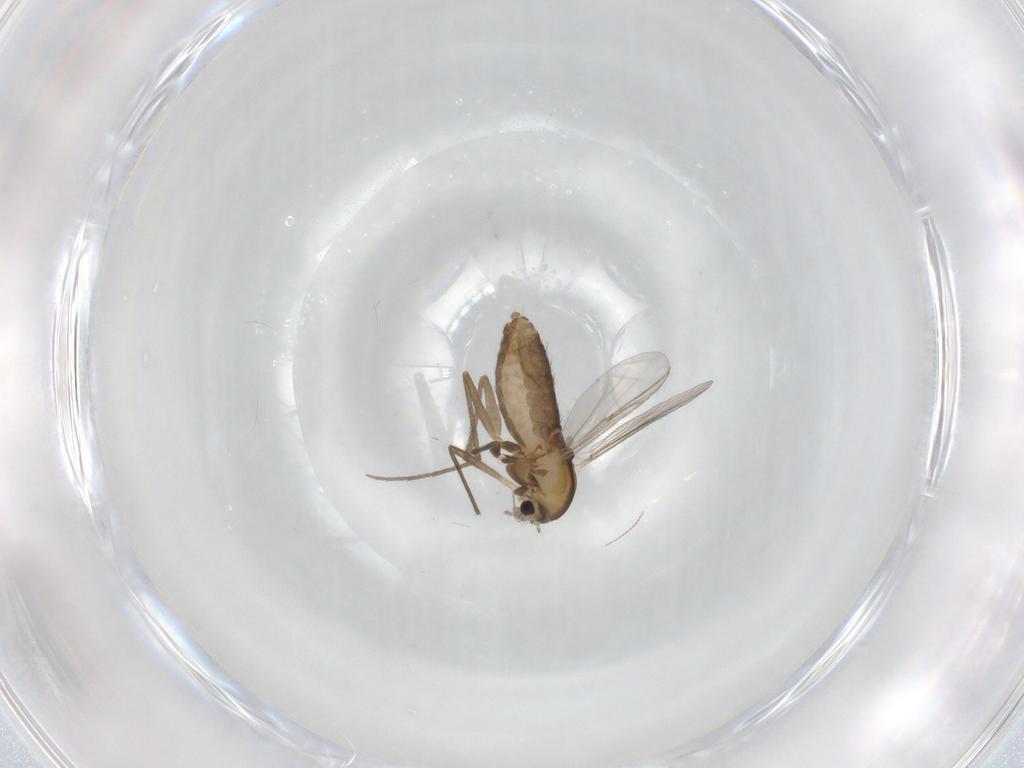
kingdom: Animalia
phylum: Arthropoda
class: Insecta
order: Diptera
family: Chironomidae
